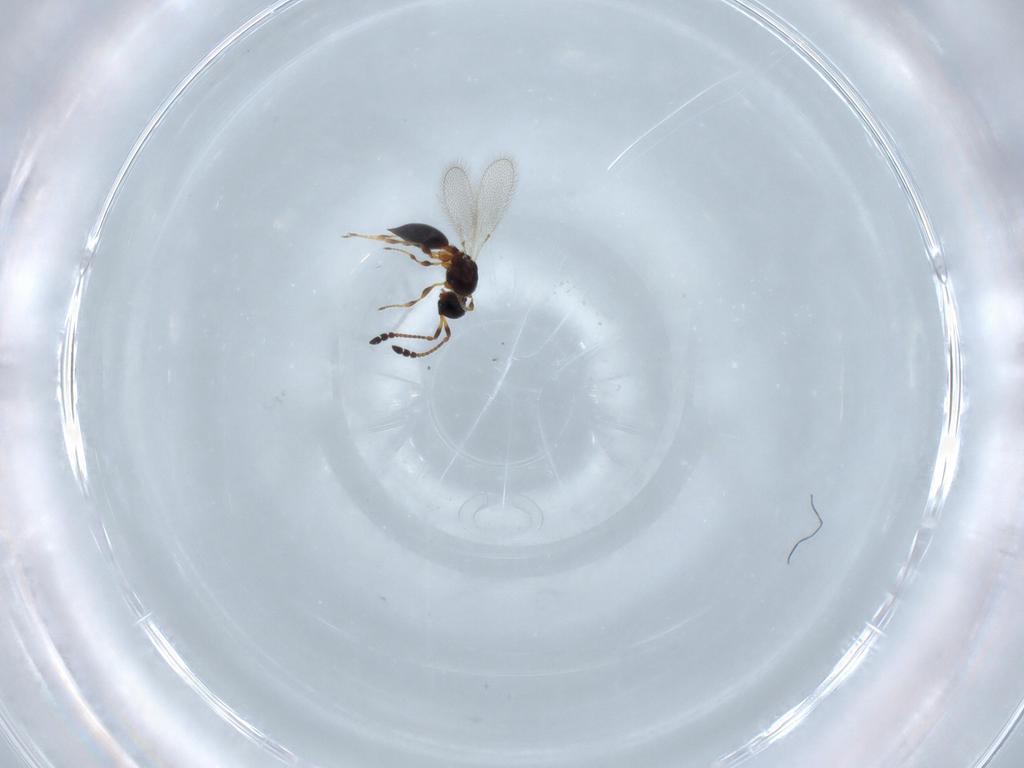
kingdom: Animalia
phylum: Arthropoda
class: Insecta
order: Hymenoptera
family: Diapriidae
